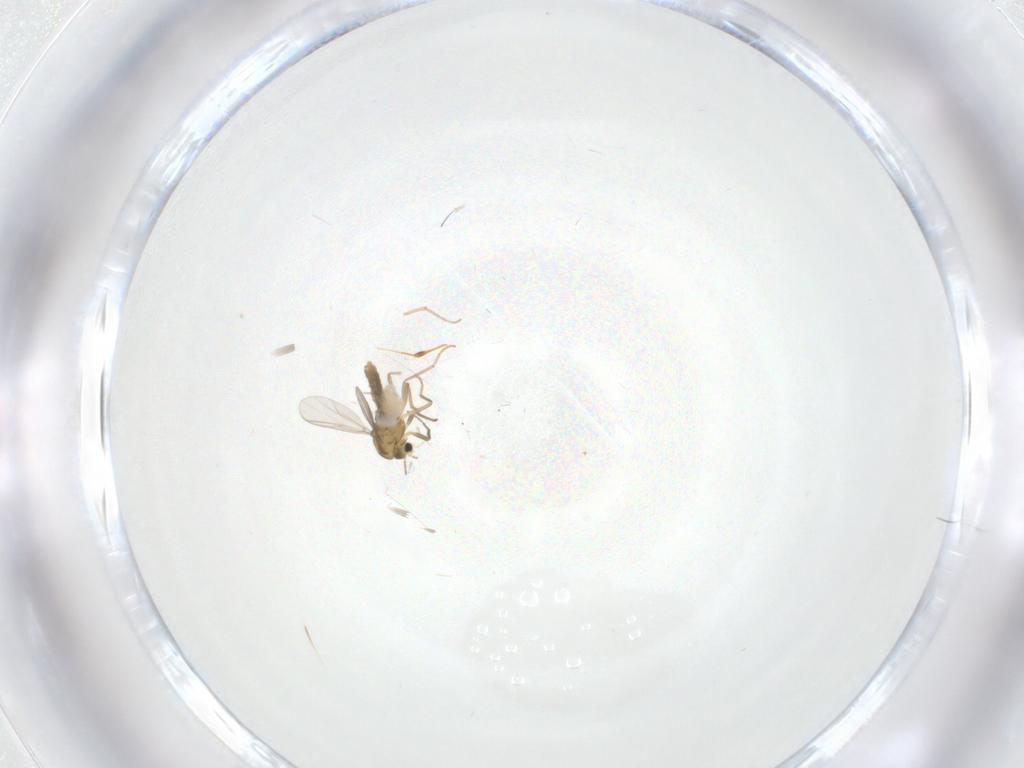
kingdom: Animalia
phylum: Arthropoda
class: Insecta
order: Diptera
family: Chironomidae
